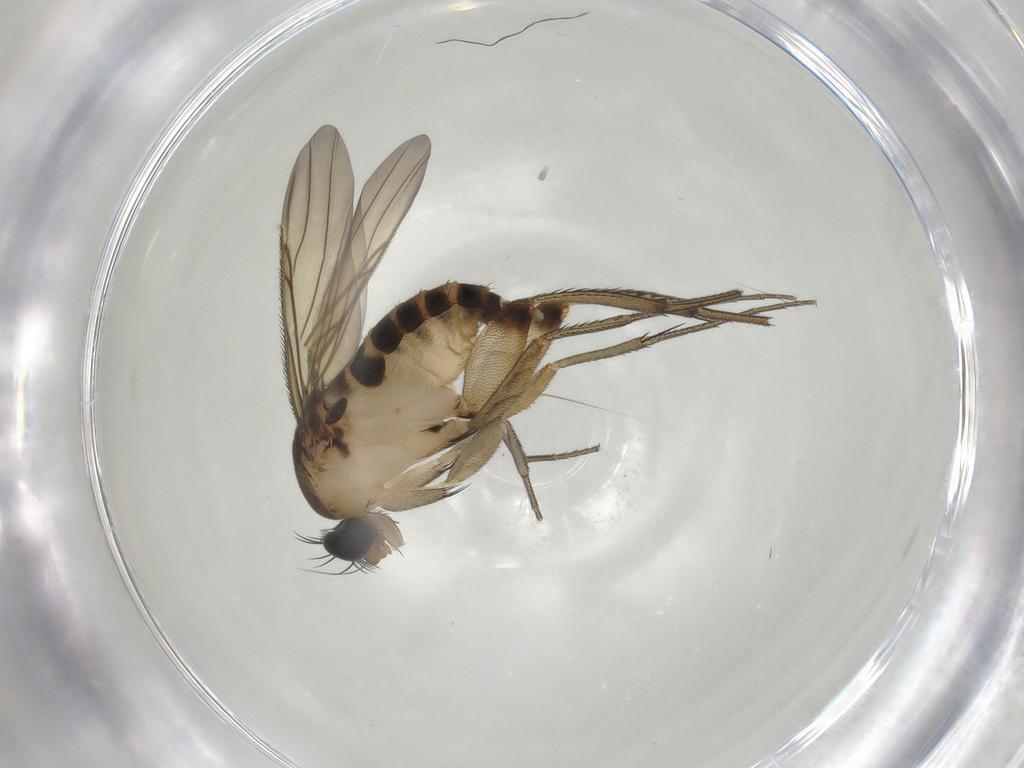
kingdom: Animalia
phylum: Arthropoda
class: Insecta
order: Diptera
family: Phoridae
